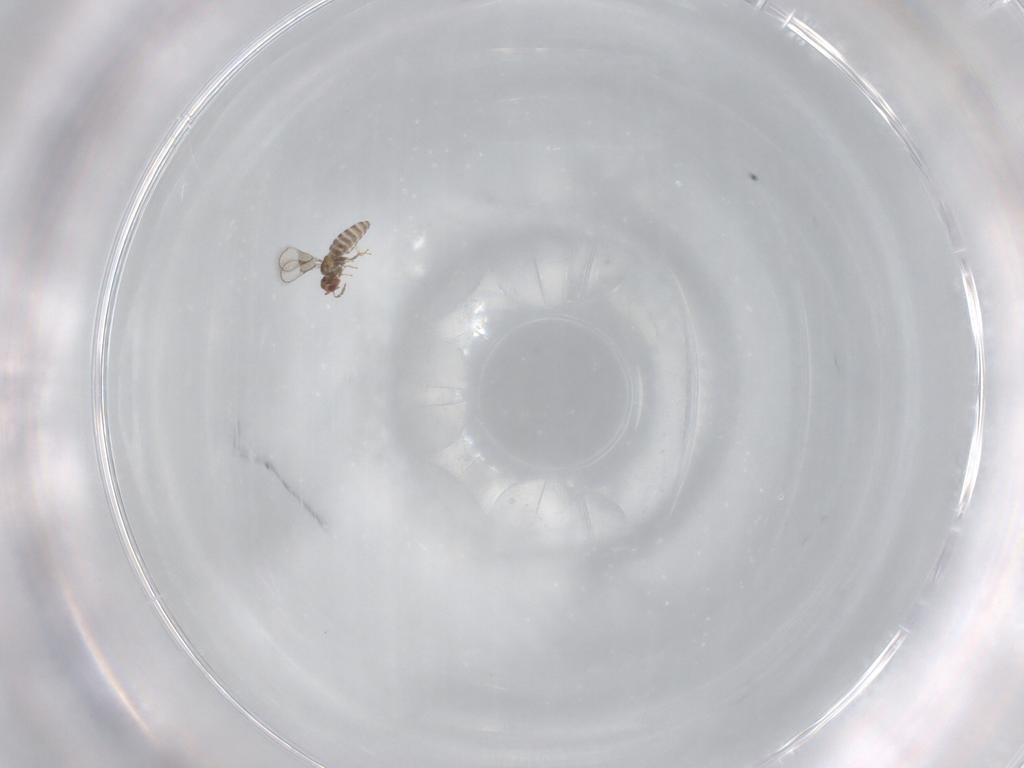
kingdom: Animalia
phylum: Arthropoda
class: Insecta
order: Hymenoptera
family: Trichogrammatidae
